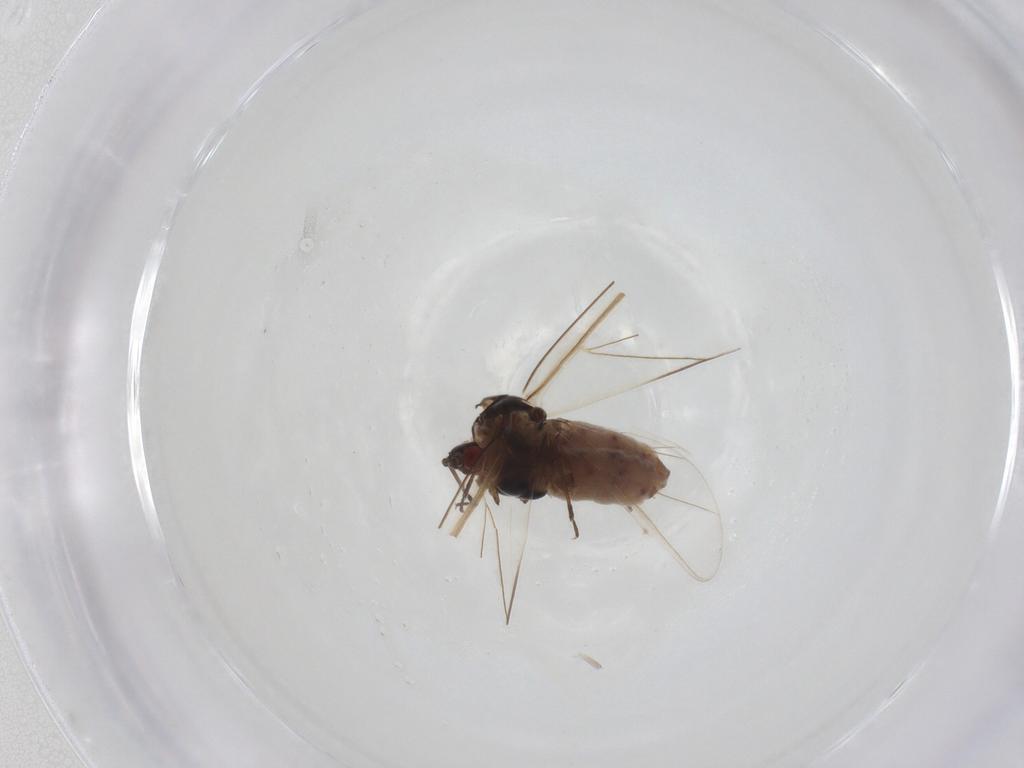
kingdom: Animalia
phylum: Arthropoda
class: Insecta
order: Hemiptera
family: Aphididae
